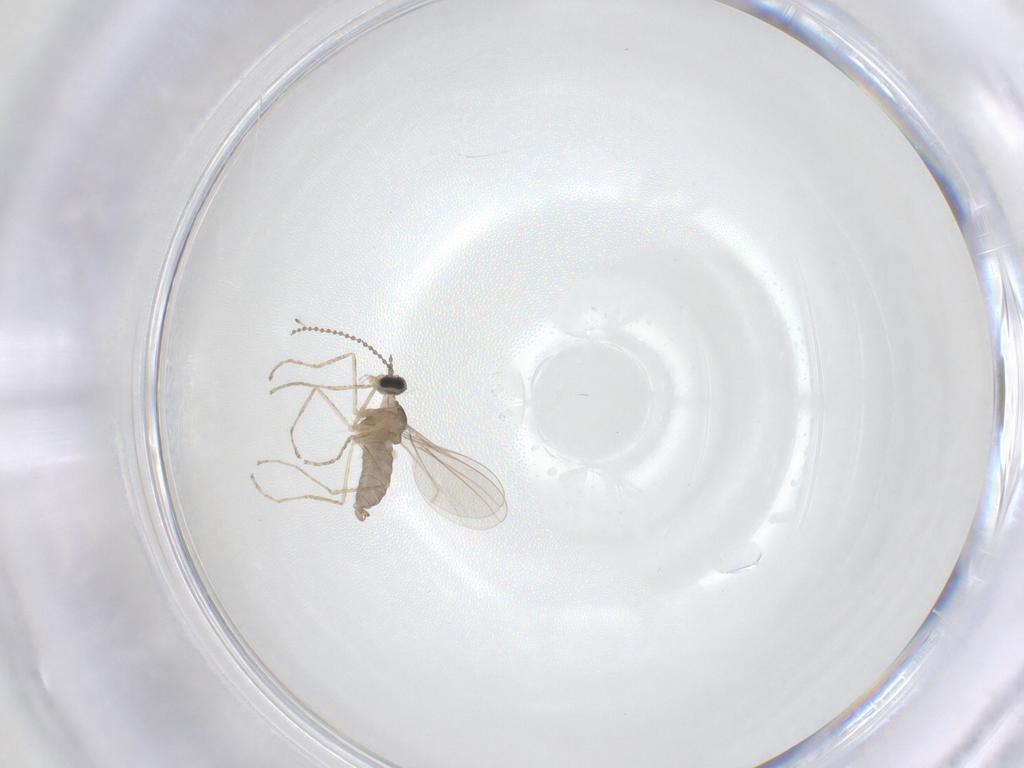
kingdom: Animalia
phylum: Arthropoda
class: Insecta
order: Diptera
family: Cecidomyiidae
